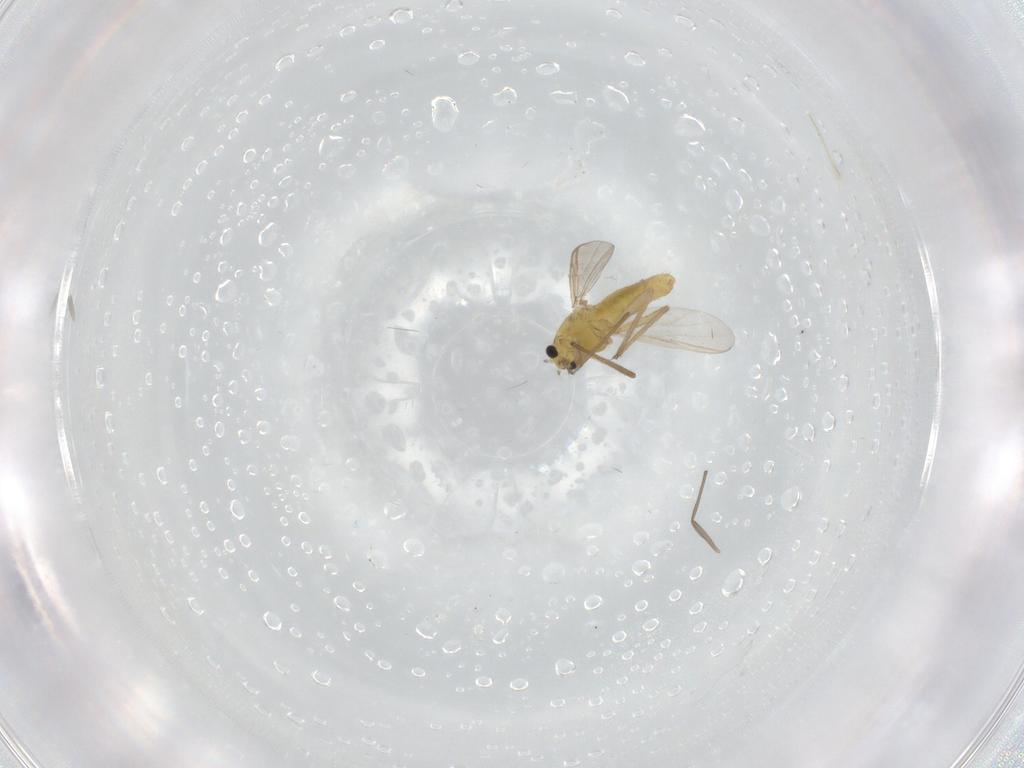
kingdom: Animalia
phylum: Arthropoda
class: Insecta
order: Diptera
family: Chironomidae
